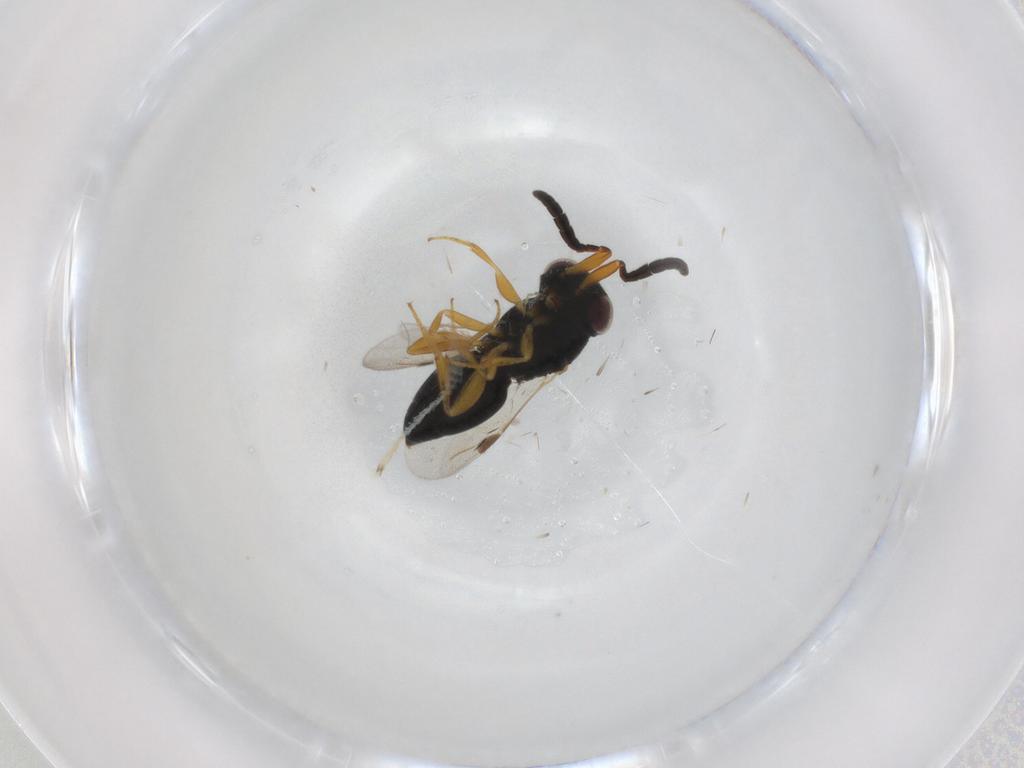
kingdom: Animalia
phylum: Arthropoda
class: Insecta
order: Hymenoptera
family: Megaspilidae
